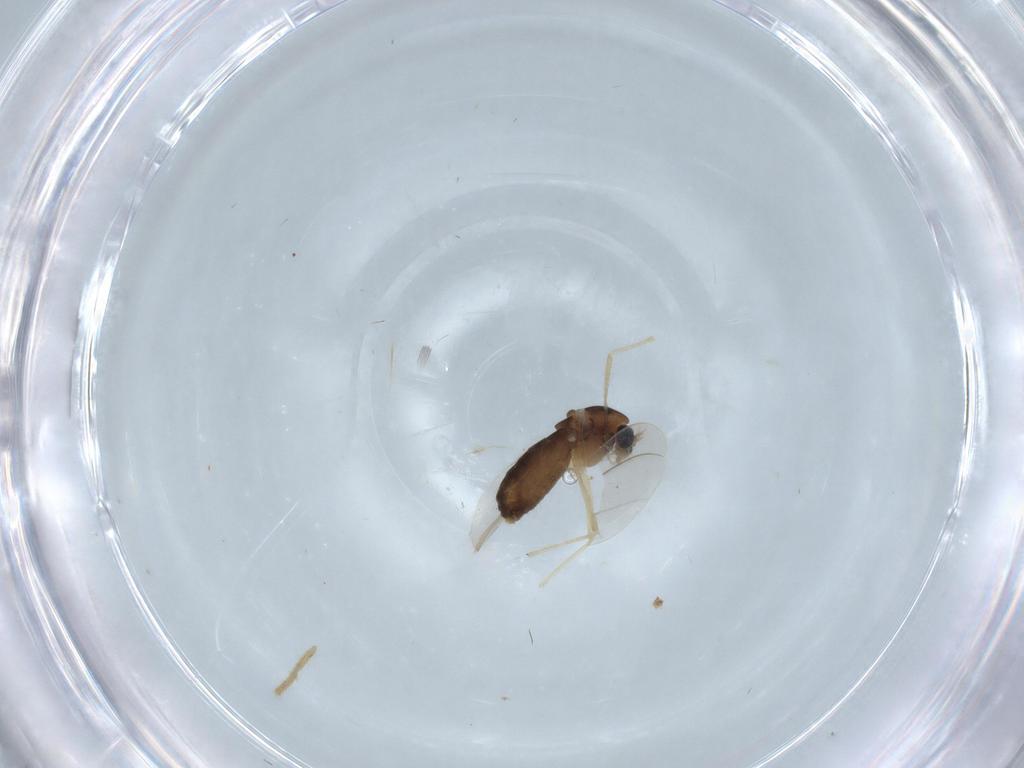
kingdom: Animalia
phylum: Arthropoda
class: Insecta
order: Diptera
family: Chironomidae
